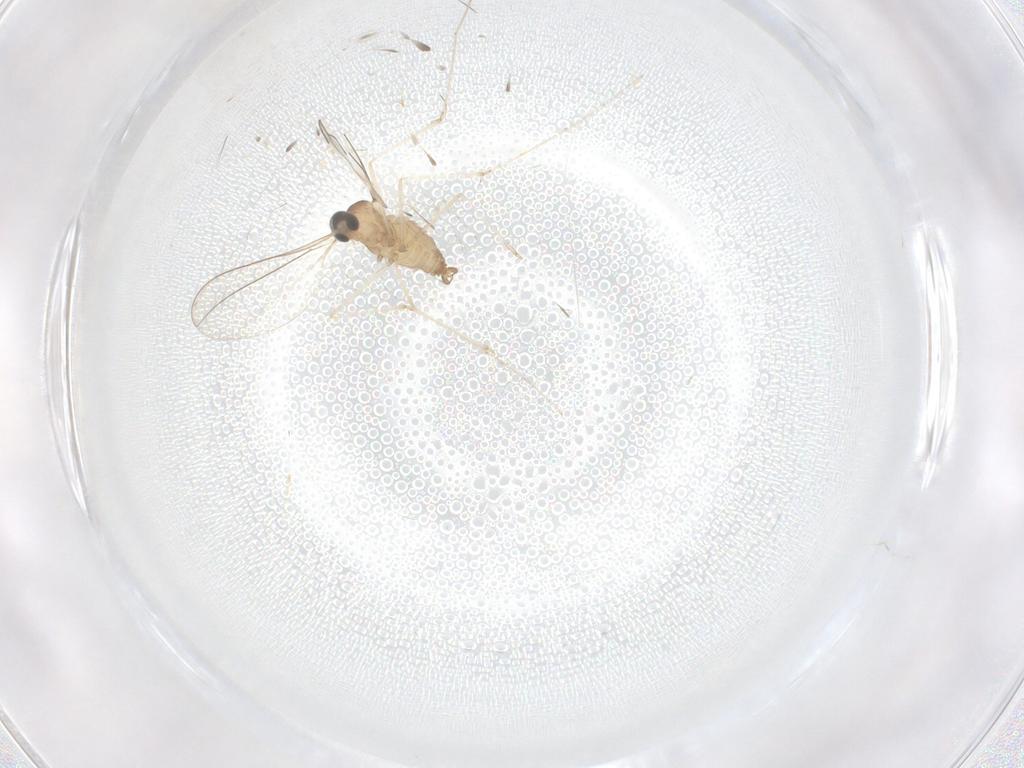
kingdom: Animalia
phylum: Arthropoda
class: Insecta
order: Diptera
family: Cecidomyiidae
